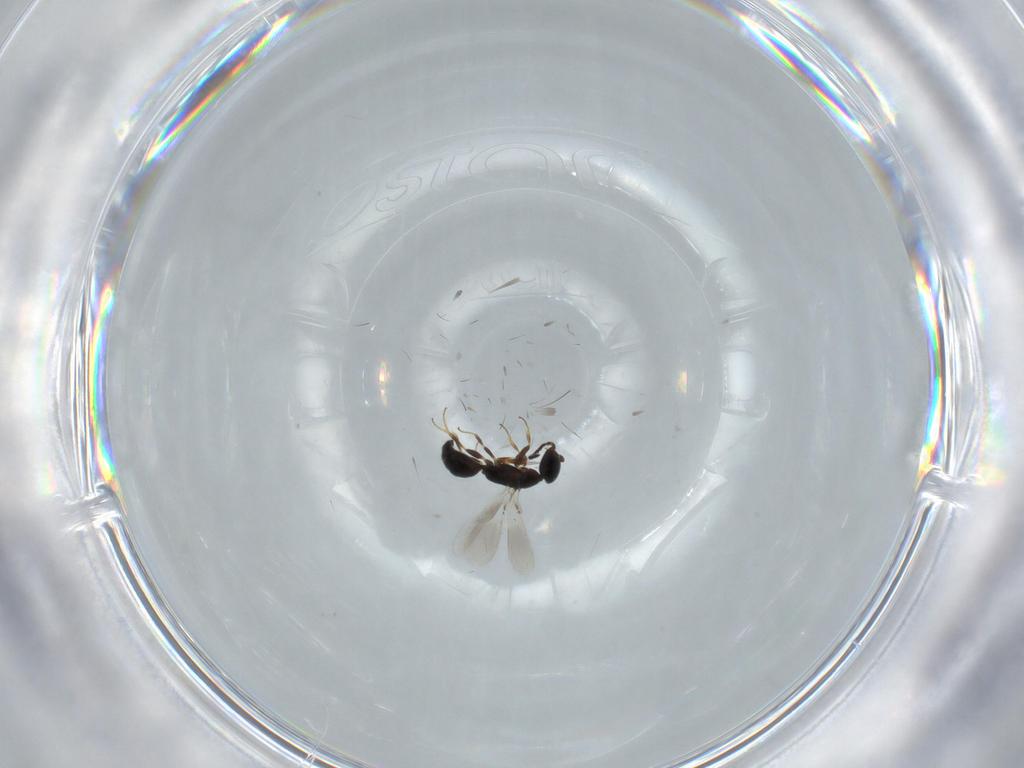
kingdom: Animalia
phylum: Arthropoda
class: Insecta
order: Hymenoptera
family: Bethylidae
